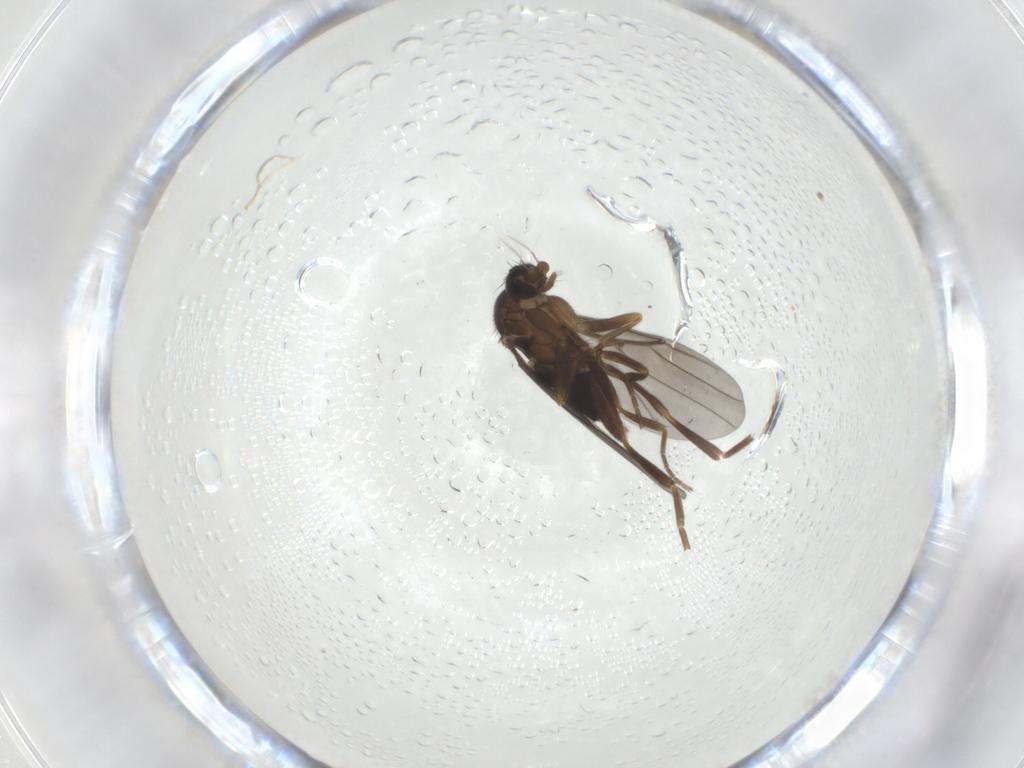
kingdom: Animalia
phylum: Arthropoda
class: Insecta
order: Diptera
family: Phoridae
